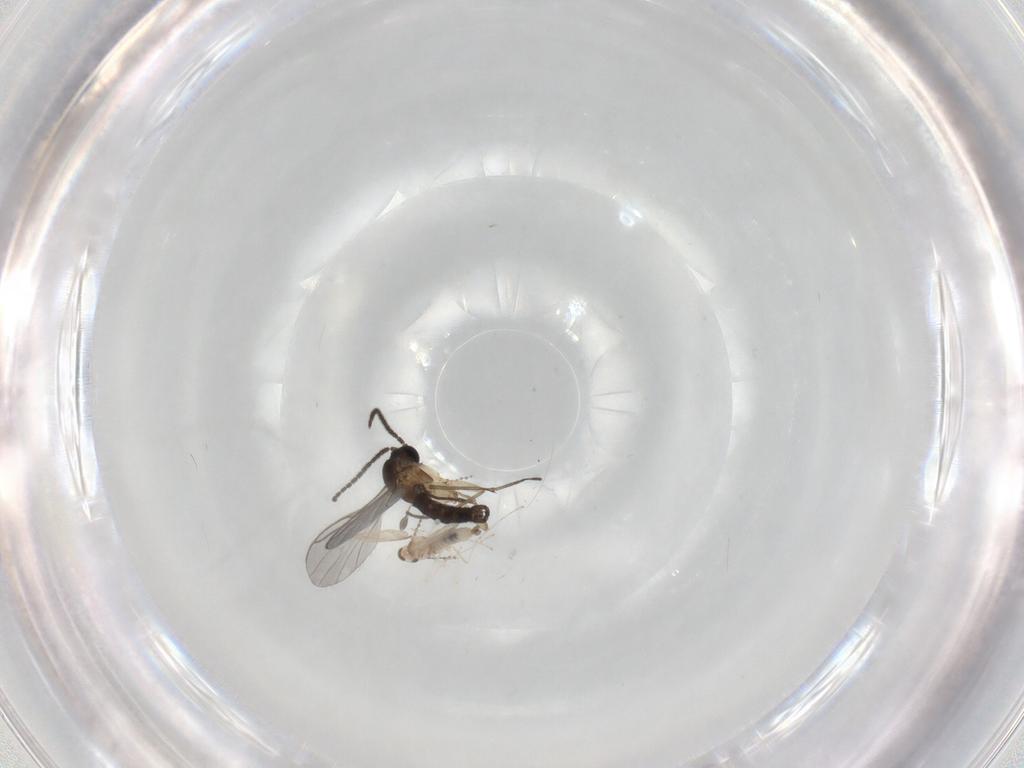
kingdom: Animalia
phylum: Arthropoda
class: Insecta
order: Diptera
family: Sciaridae
